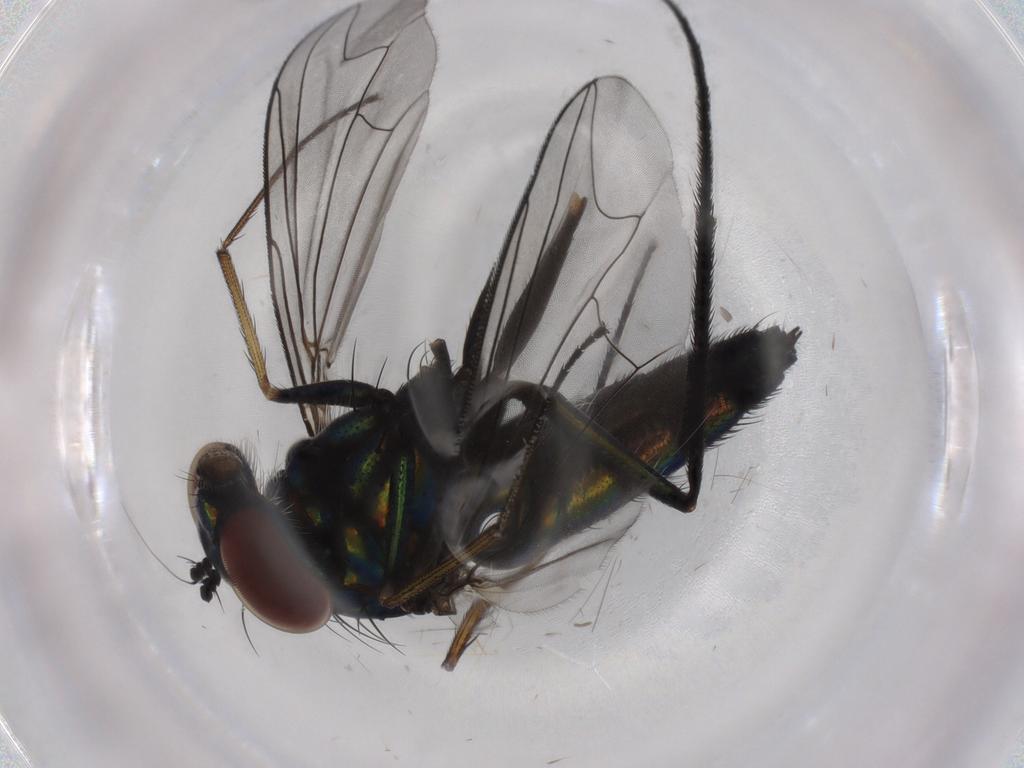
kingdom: Animalia
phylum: Arthropoda
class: Insecta
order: Diptera
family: Dolichopodidae
